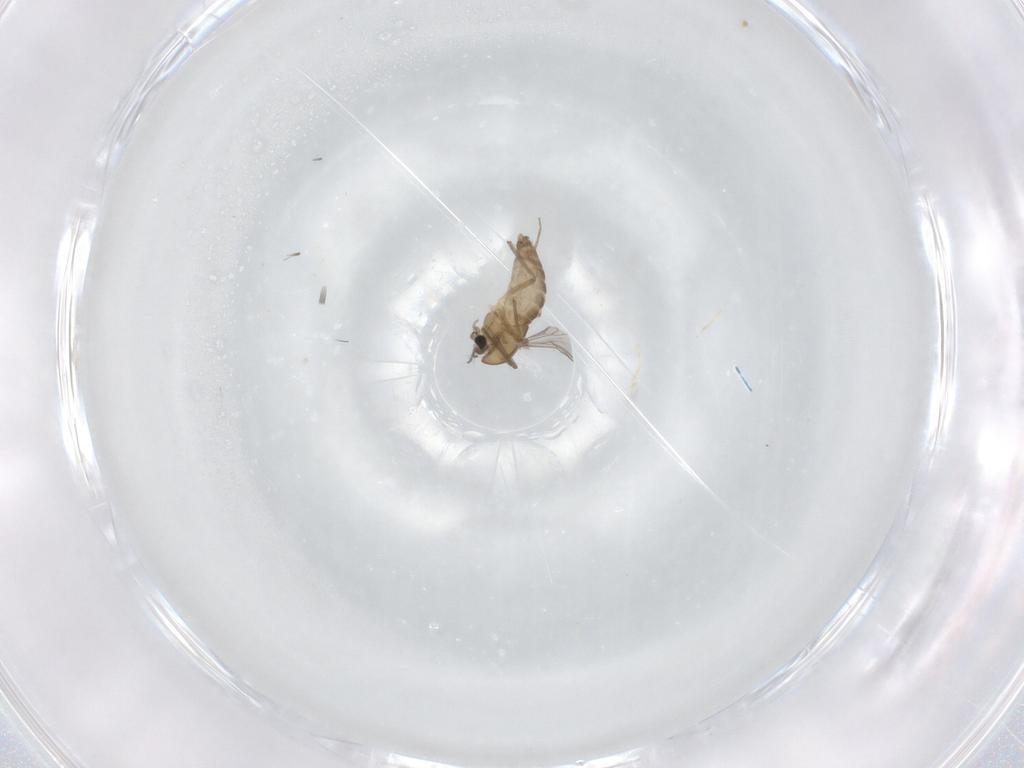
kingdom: Animalia
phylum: Arthropoda
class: Insecta
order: Diptera
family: Chironomidae
